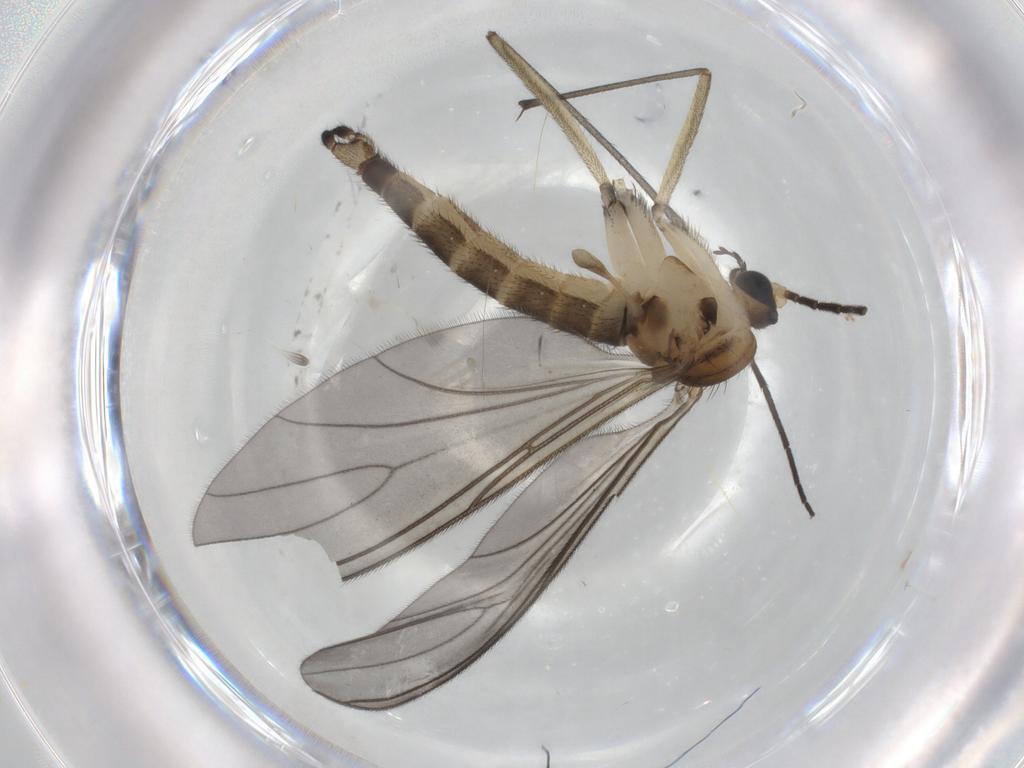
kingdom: Animalia
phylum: Arthropoda
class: Insecta
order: Diptera
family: Sciaridae
